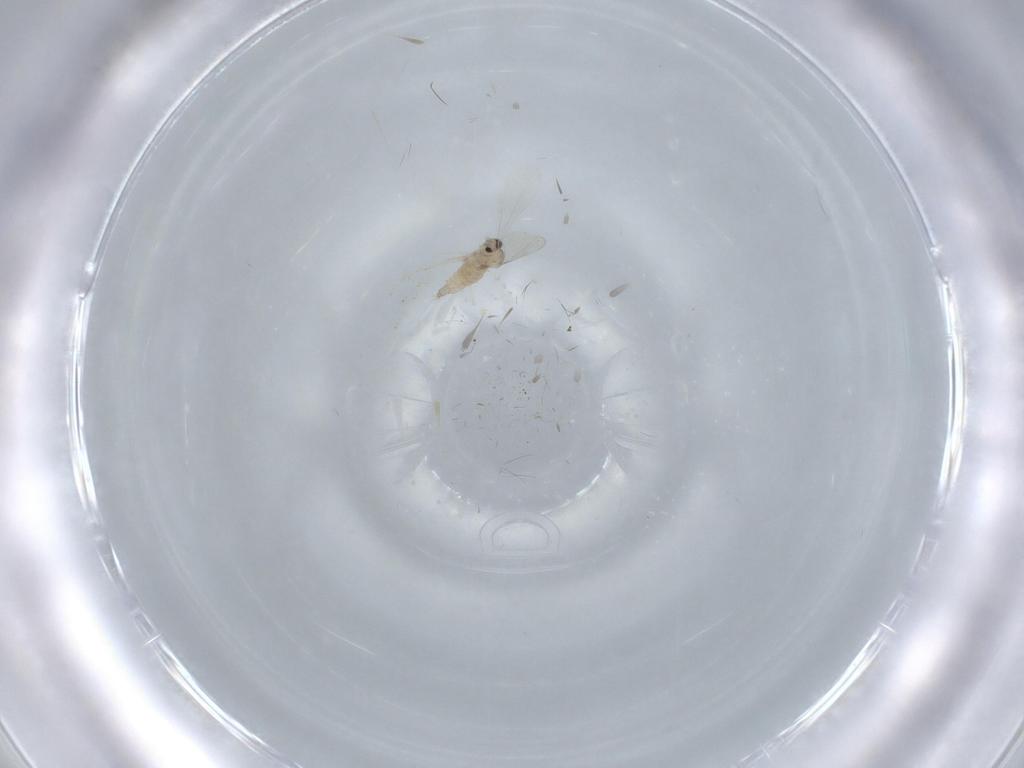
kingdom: Animalia
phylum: Arthropoda
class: Insecta
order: Diptera
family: Cecidomyiidae
